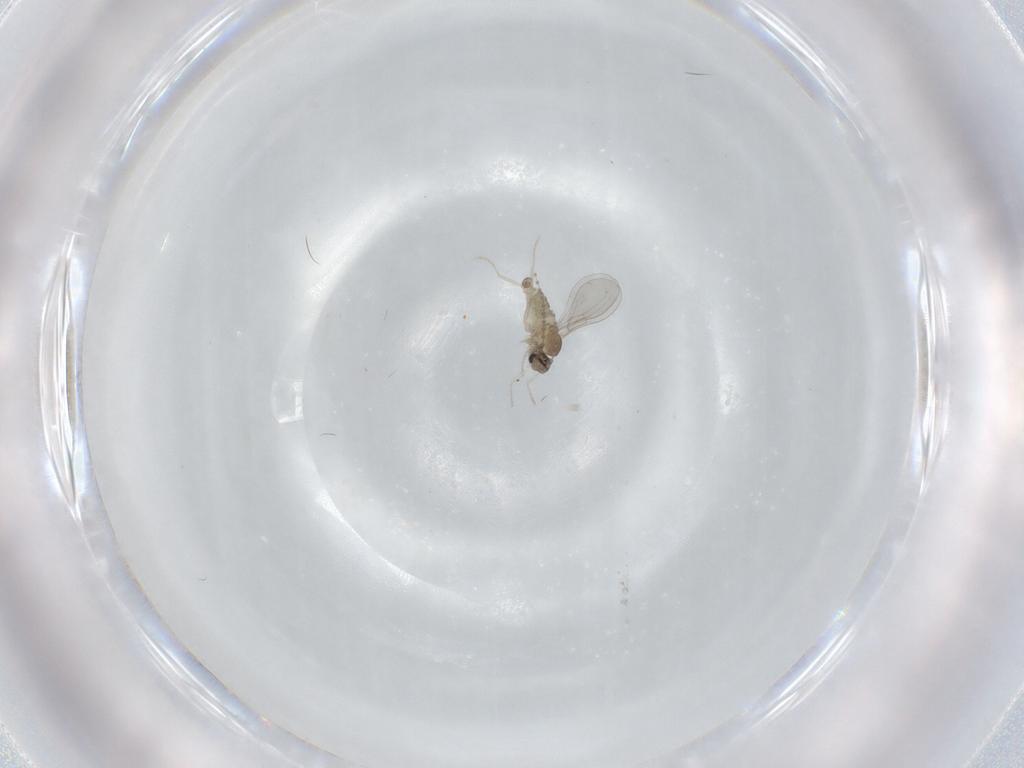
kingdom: Animalia
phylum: Arthropoda
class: Insecta
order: Diptera
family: Cecidomyiidae
